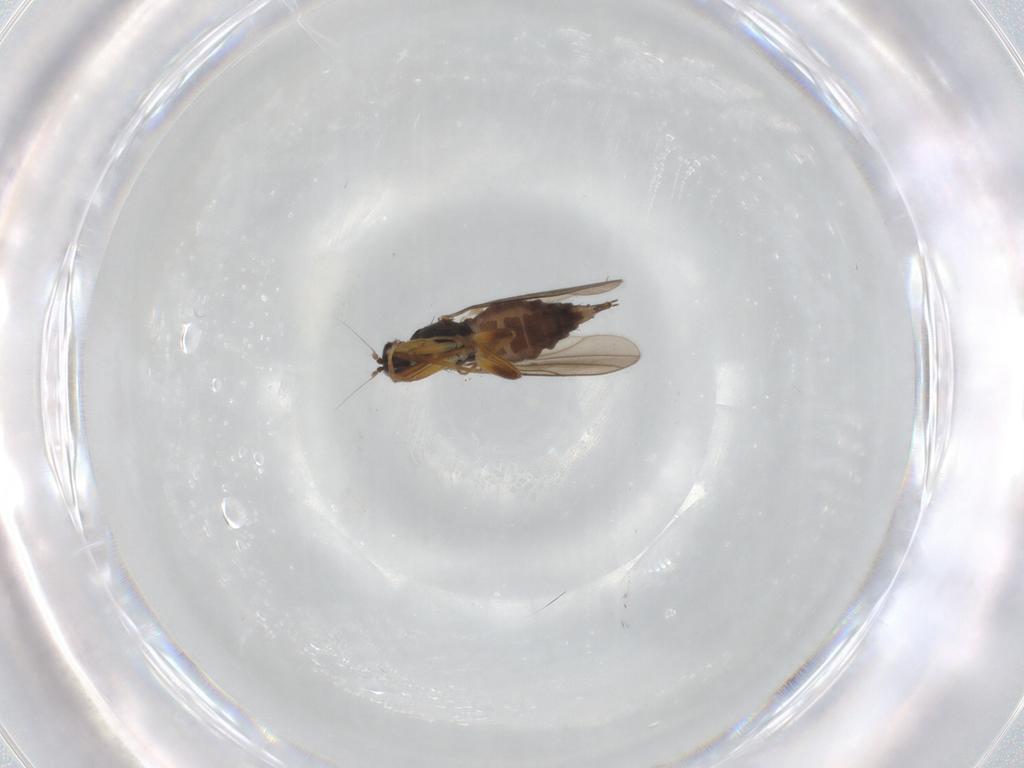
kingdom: Animalia
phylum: Arthropoda
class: Insecta
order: Diptera
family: Hybotidae
